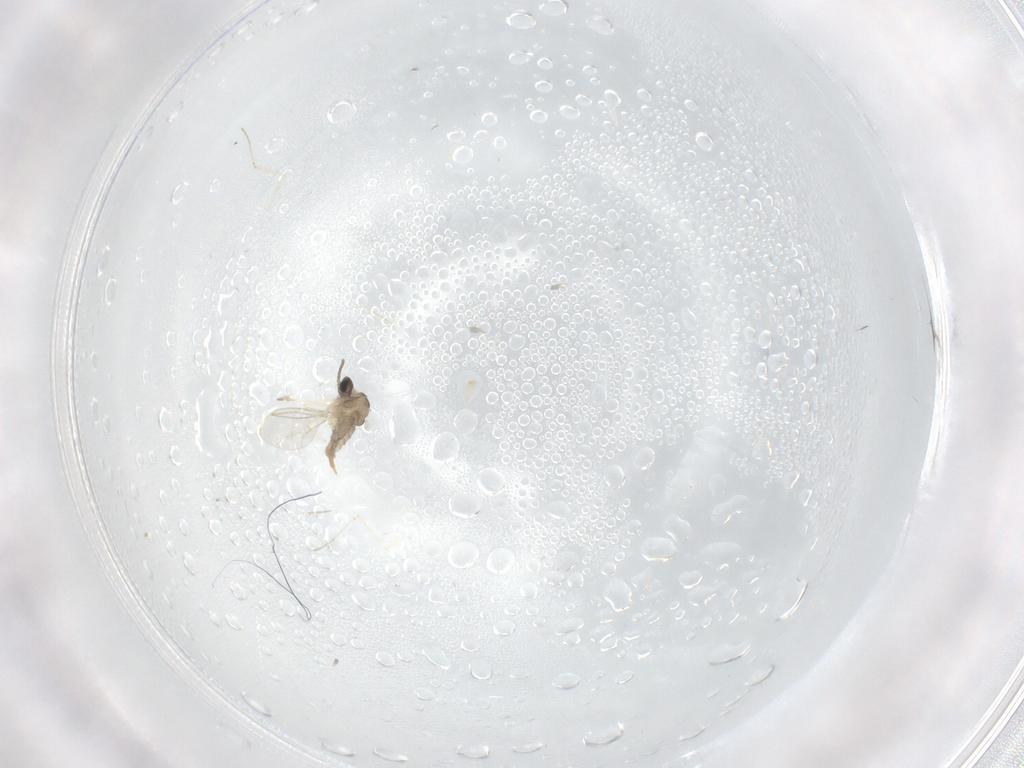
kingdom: Animalia
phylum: Arthropoda
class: Insecta
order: Diptera
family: Cecidomyiidae
